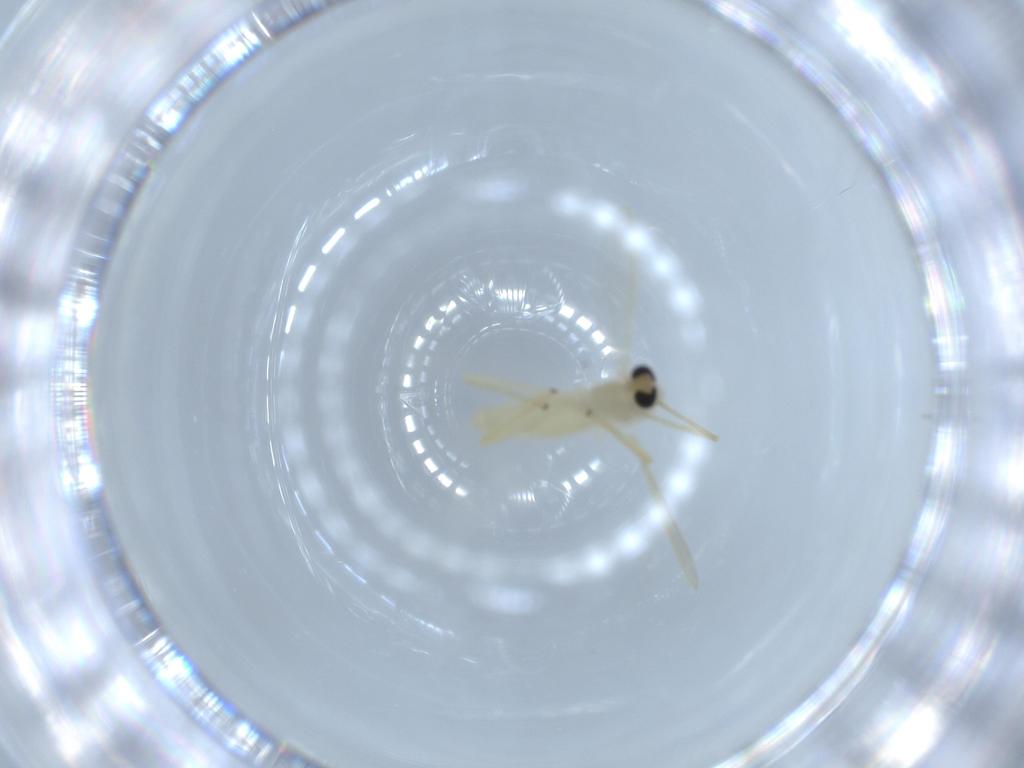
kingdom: Animalia
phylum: Arthropoda
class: Insecta
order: Diptera
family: Chironomidae
